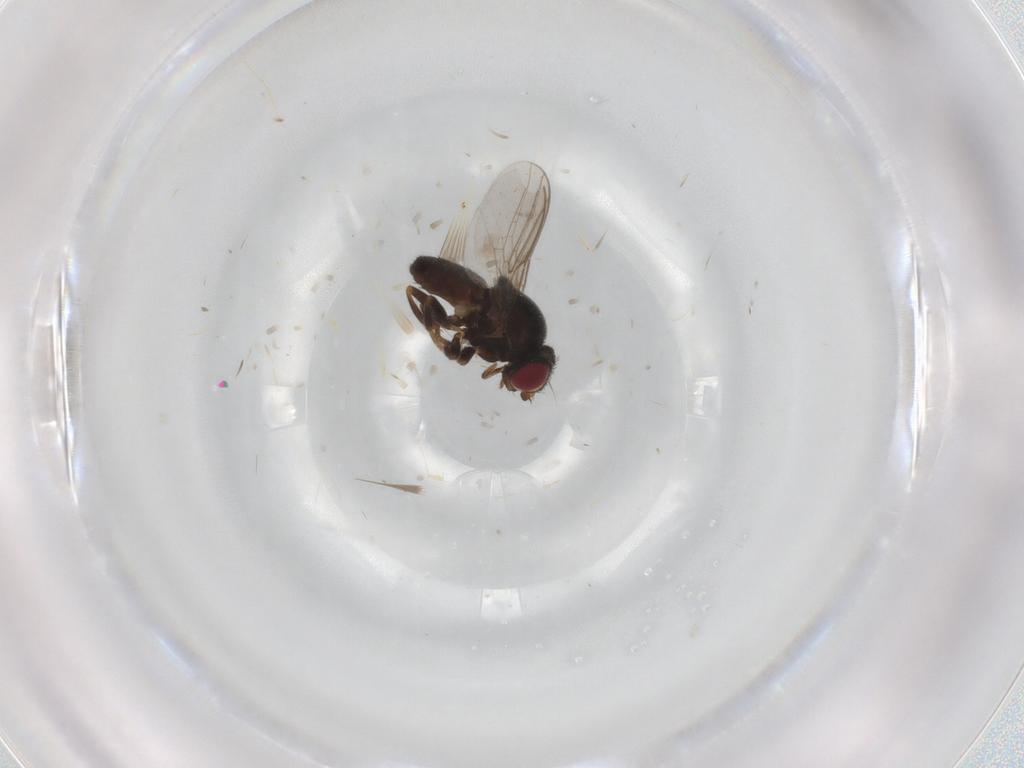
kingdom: Animalia
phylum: Arthropoda
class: Insecta
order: Diptera
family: Chloropidae
